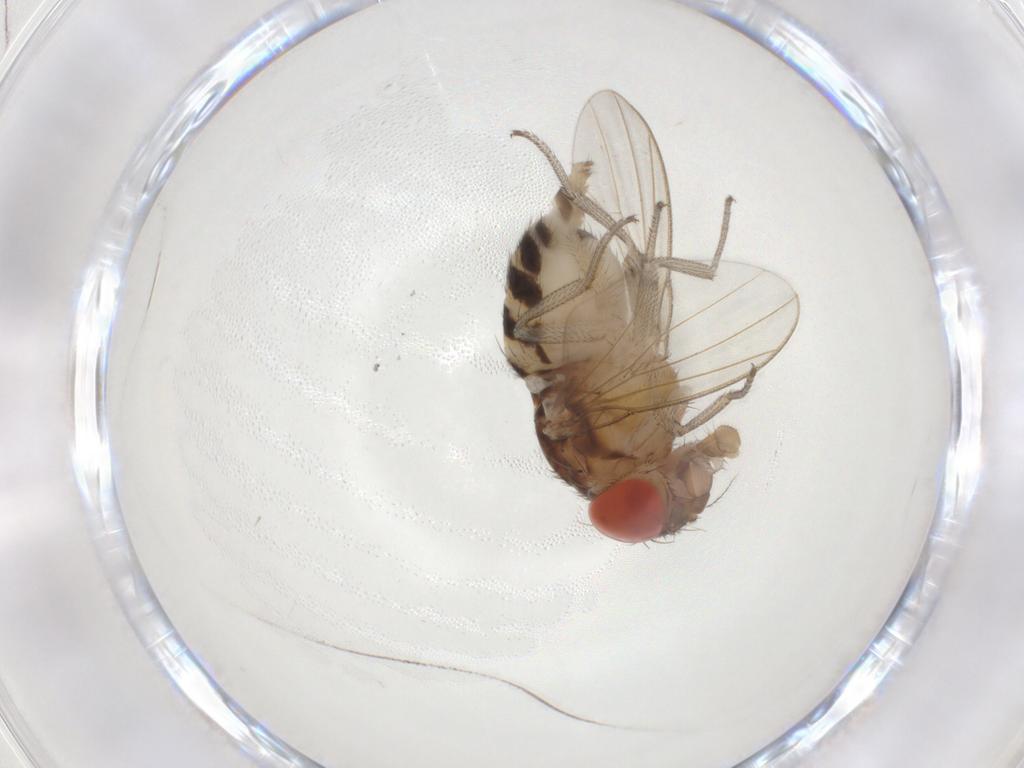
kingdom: Animalia
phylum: Arthropoda
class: Insecta
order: Diptera
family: Drosophilidae
